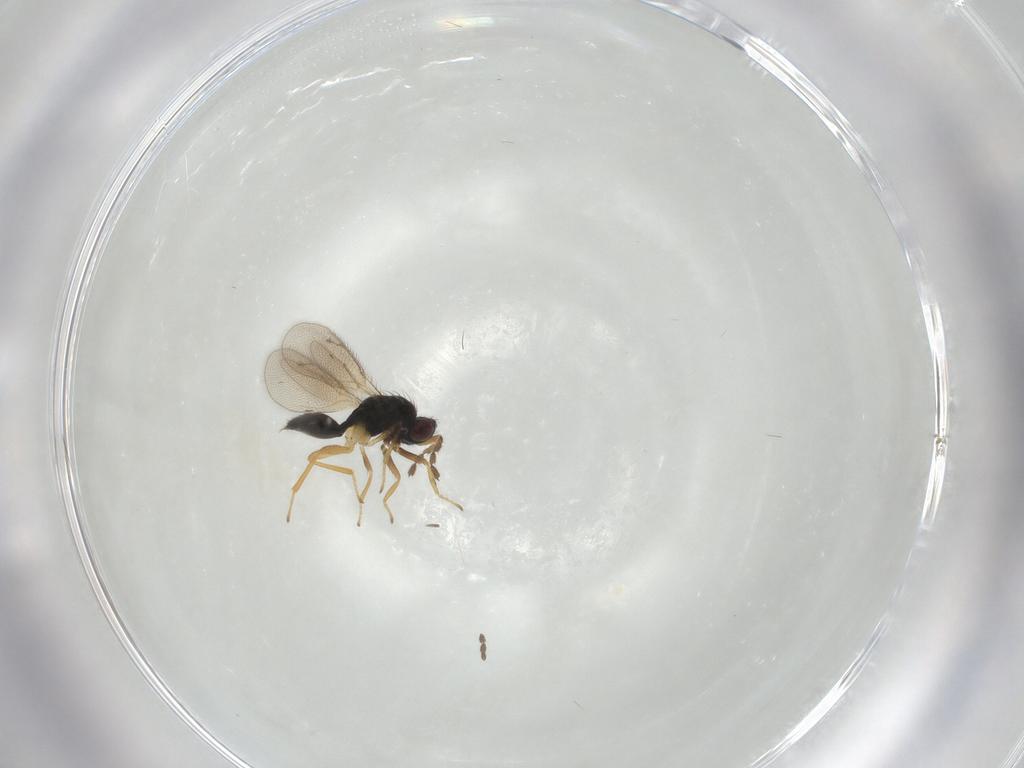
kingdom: Animalia
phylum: Arthropoda
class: Insecta
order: Hymenoptera
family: Eulophidae
